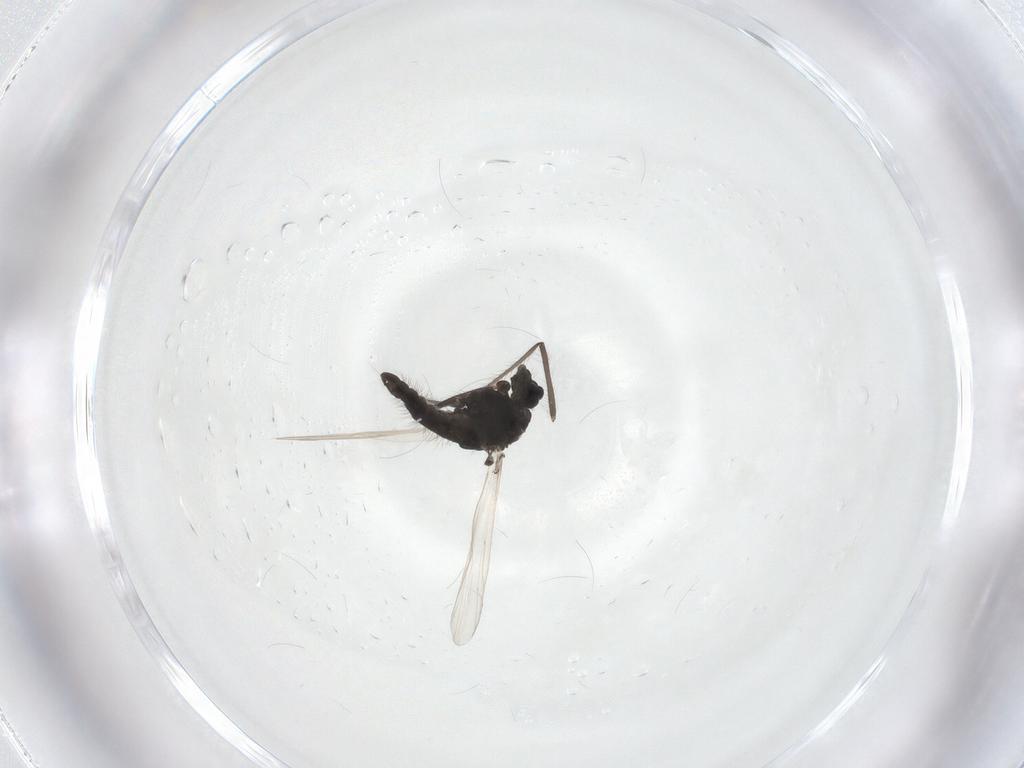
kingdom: Animalia
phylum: Arthropoda
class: Insecta
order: Diptera
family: Chironomidae
